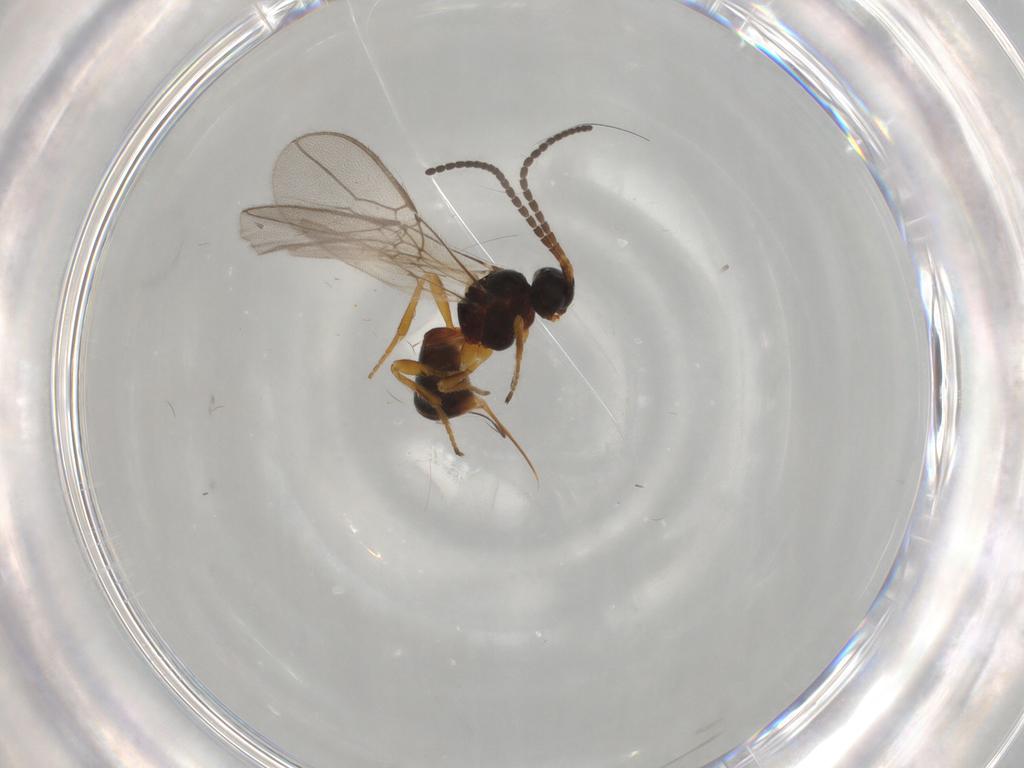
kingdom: Animalia
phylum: Arthropoda
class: Insecta
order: Hymenoptera
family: Braconidae
